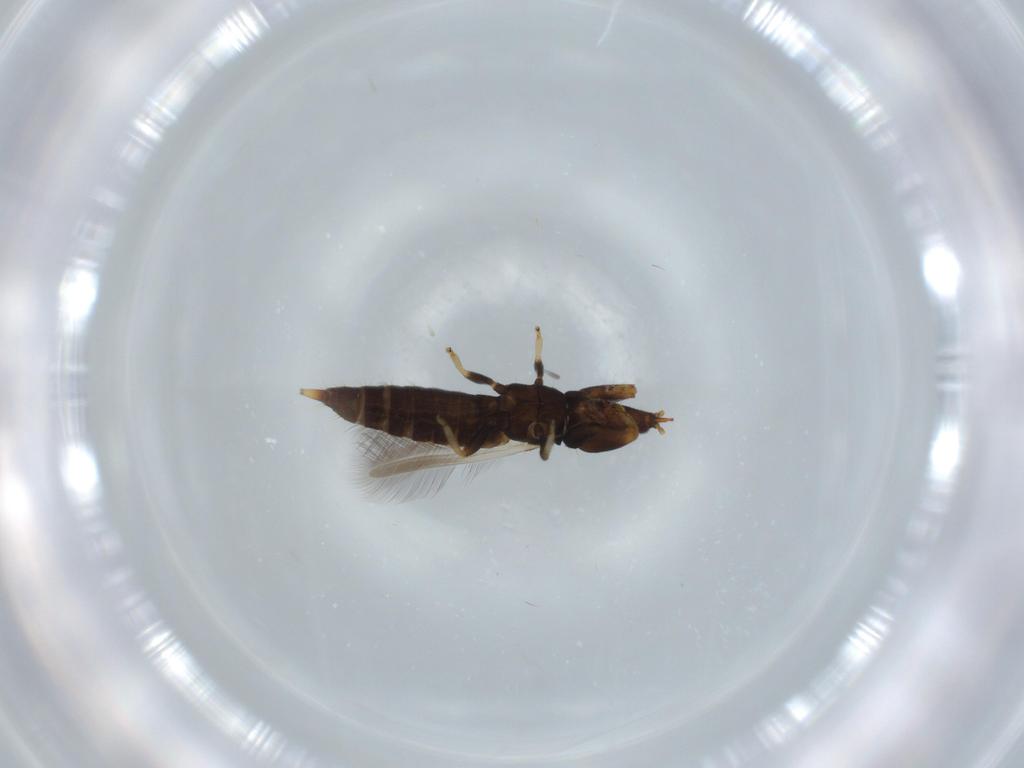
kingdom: Animalia
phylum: Arthropoda
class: Insecta
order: Thysanoptera
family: Phlaeothripidae
